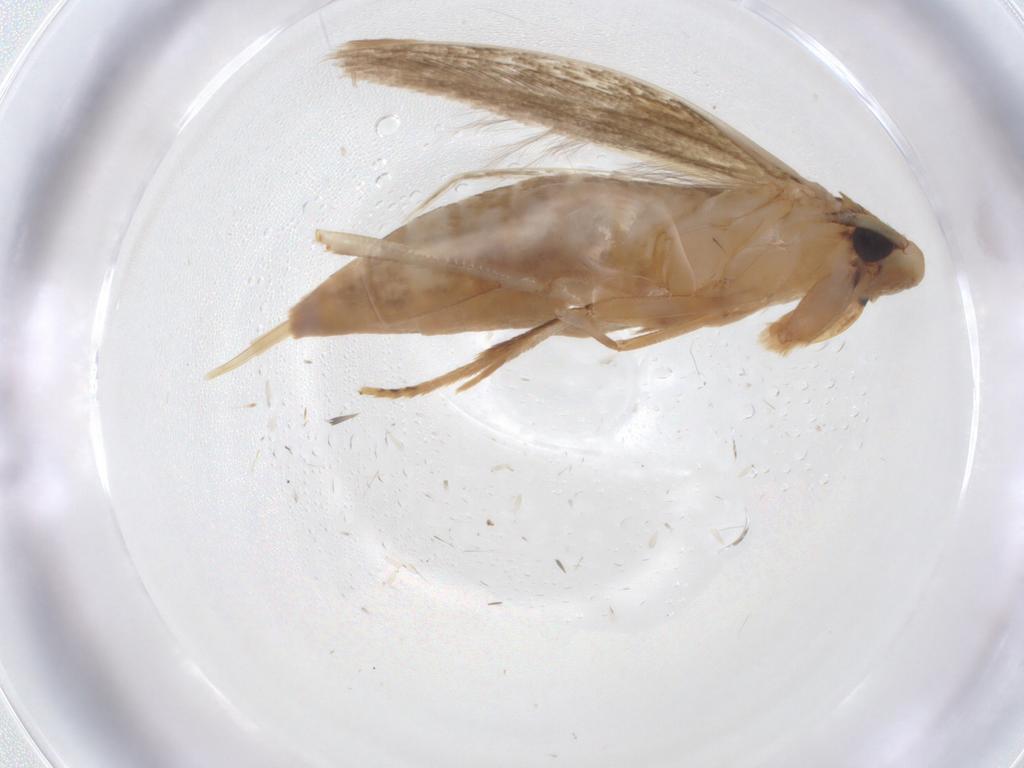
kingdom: Animalia
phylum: Arthropoda
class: Insecta
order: Lepidoptera
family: Tineidae
